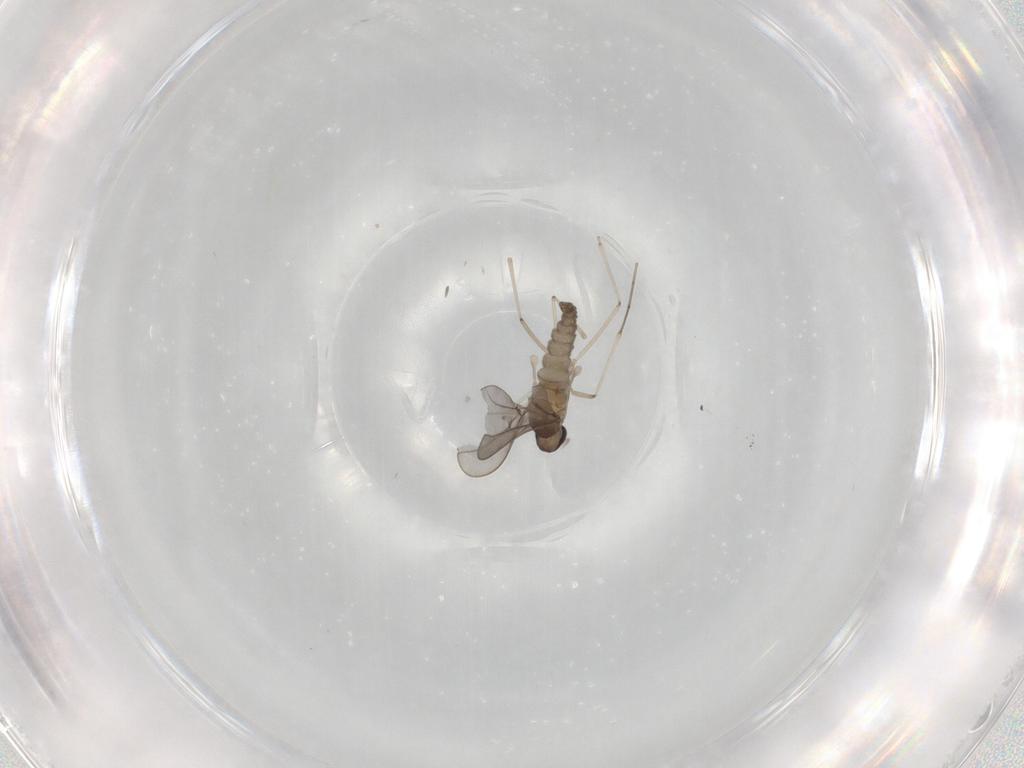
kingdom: Animalia
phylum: Arthropoda
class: Insecta
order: Diptera
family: Cecidomyiidae
